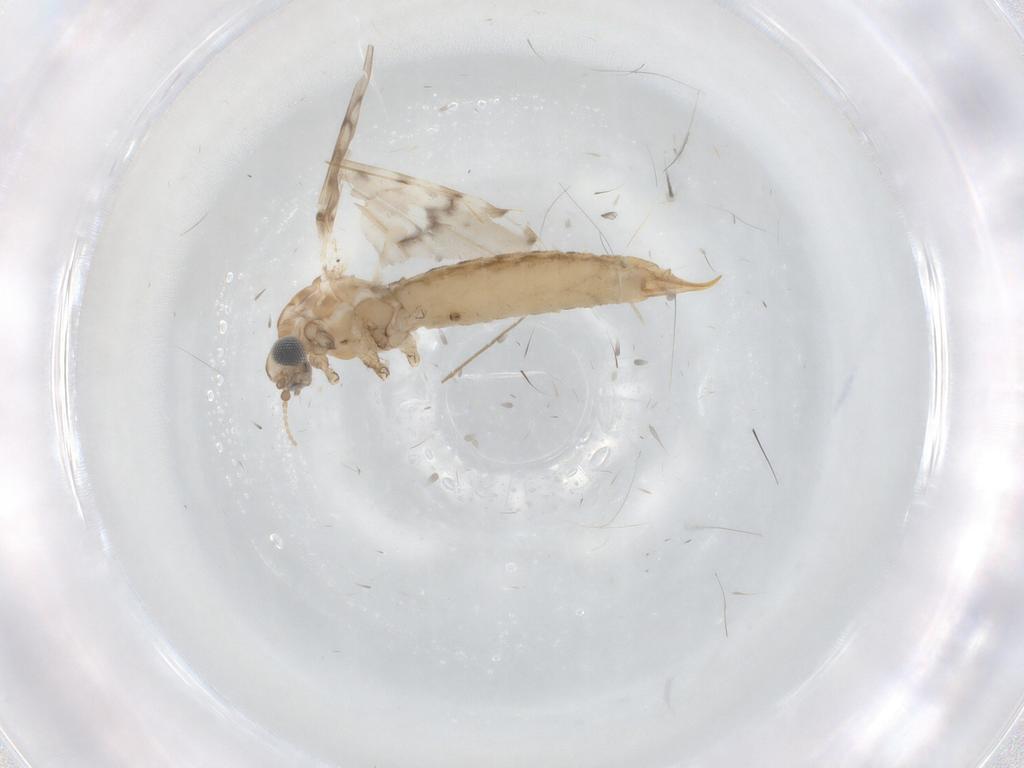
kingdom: Animalia
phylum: Arthropoda
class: Insecta
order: Diptera
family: Limoniidae
